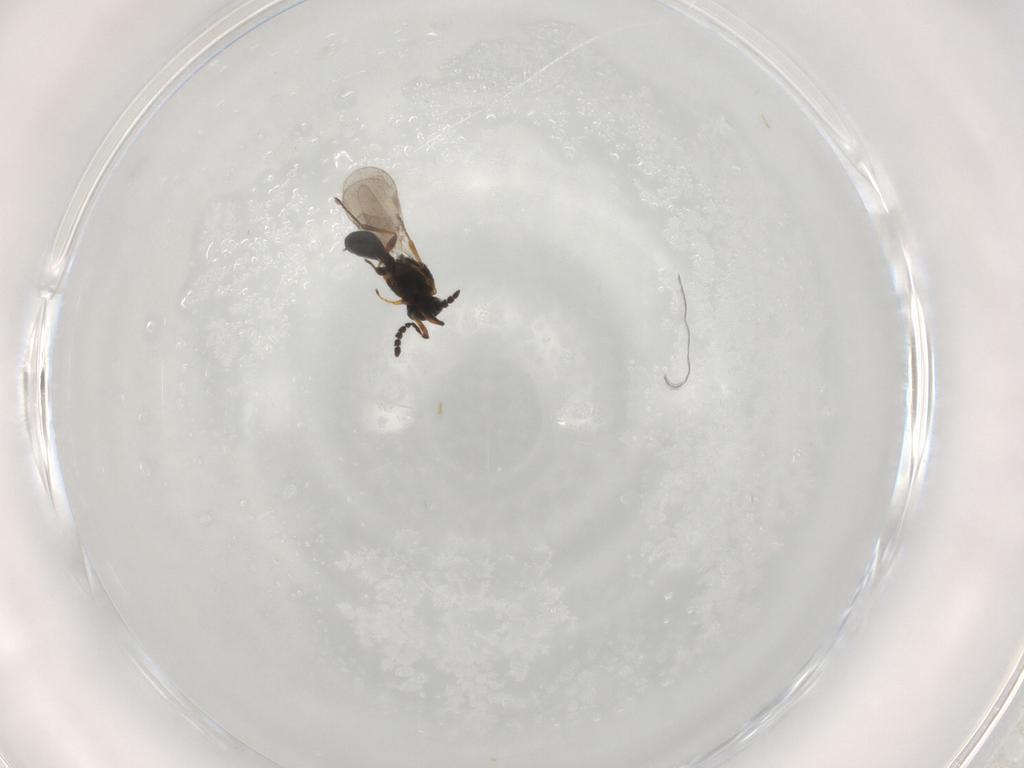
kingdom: Animalia
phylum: Arthropoda
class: Insecta
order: Hymenoptera
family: Platygastridae
